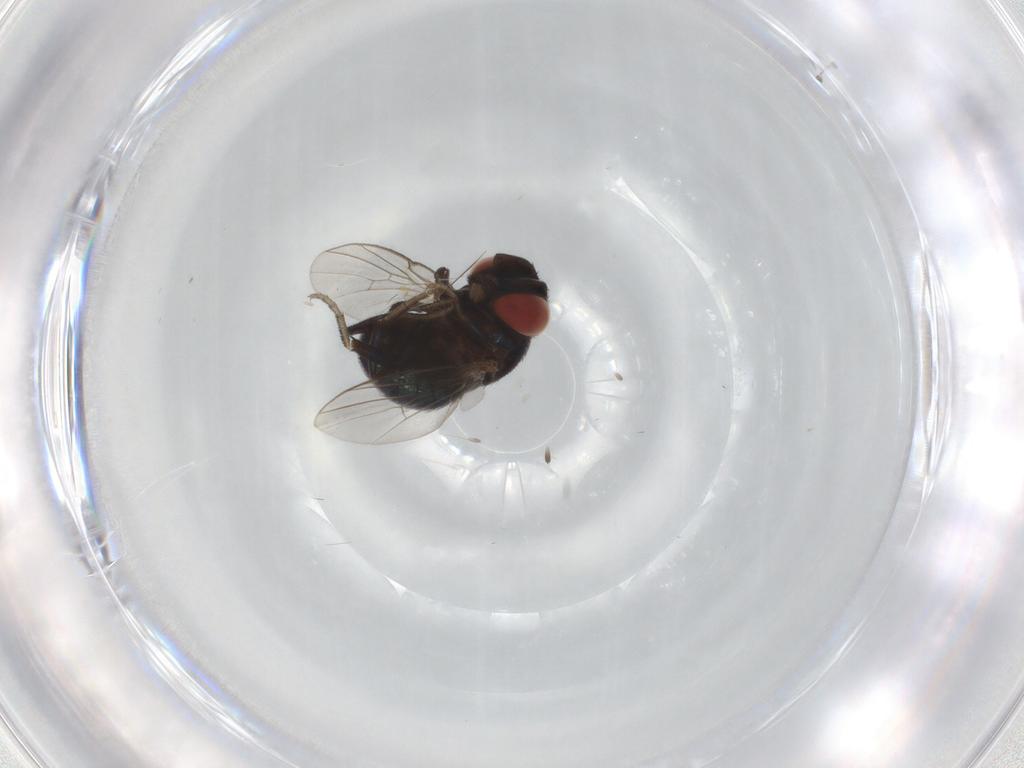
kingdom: Animalia
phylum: Arthropoda
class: Insecta
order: Diptera
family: Cryptochetidae
